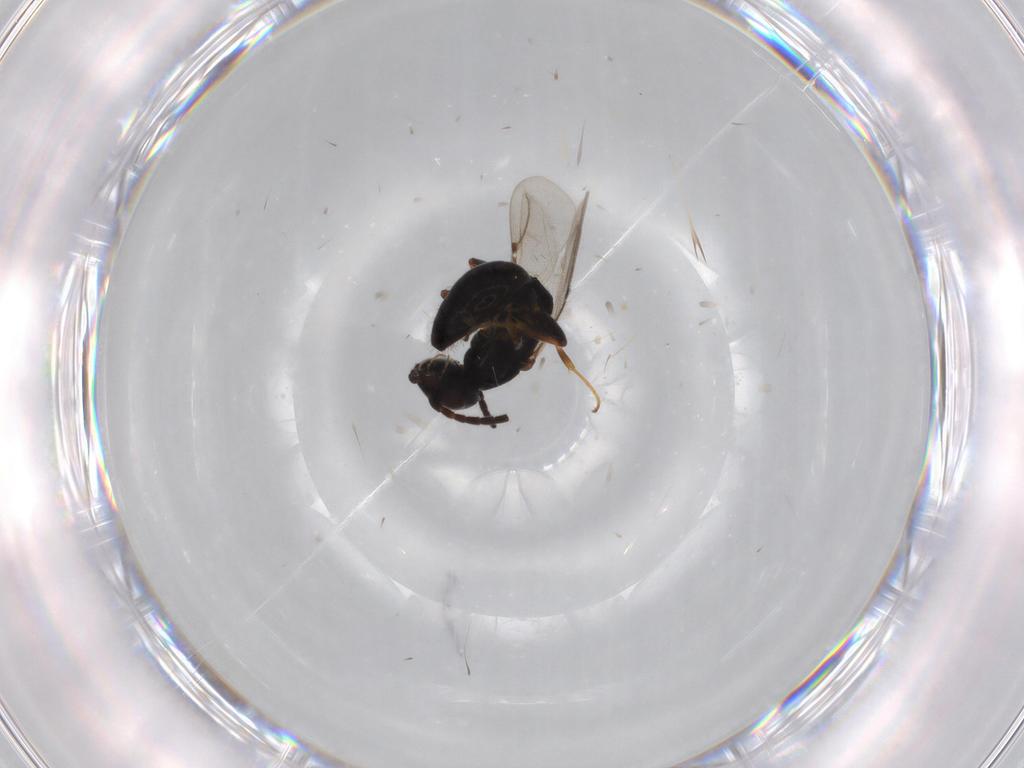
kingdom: Animalia
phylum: Arthropoda
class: Insecta
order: Hymenoptera
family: Bethylidae
